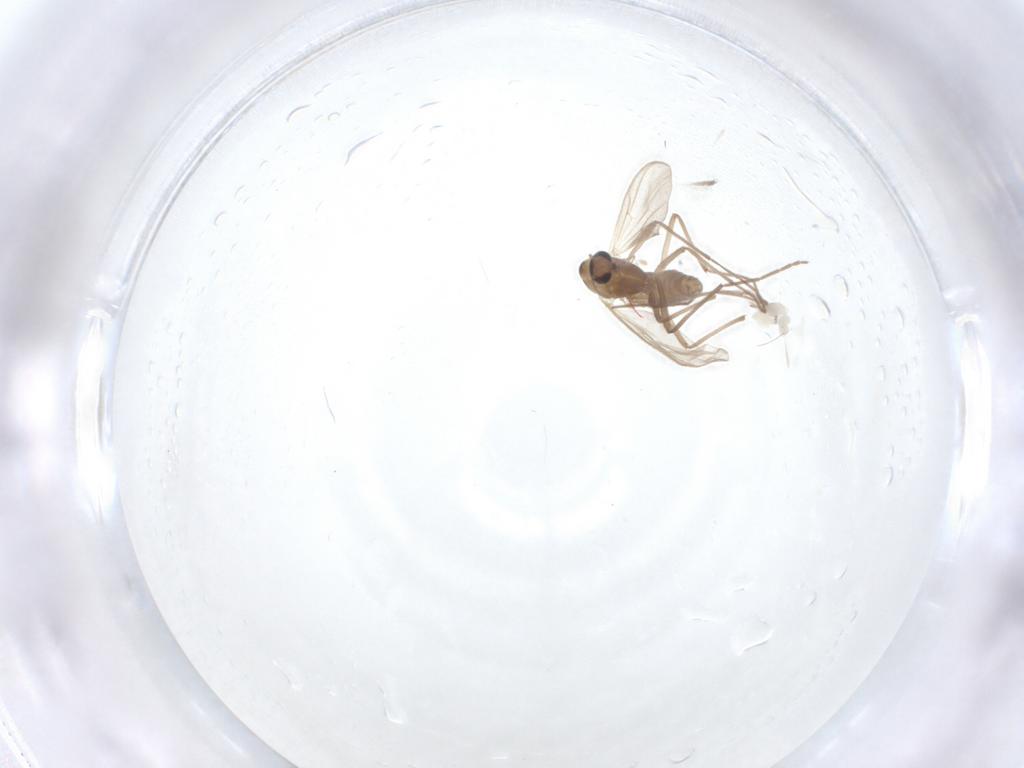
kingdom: Animalia
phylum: Arthropoda
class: Insecta
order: Diptera
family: Chironomidae
